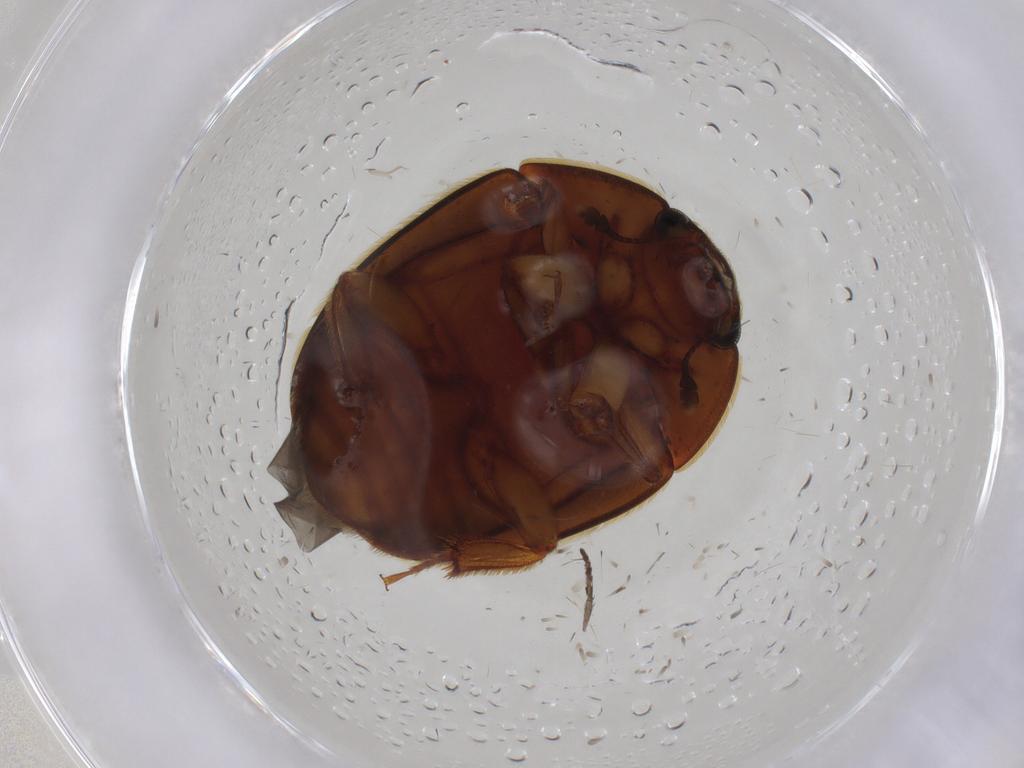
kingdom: Animalia
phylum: Arthropoda
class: Insecta
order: Coleoptera
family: Nitidulidae
